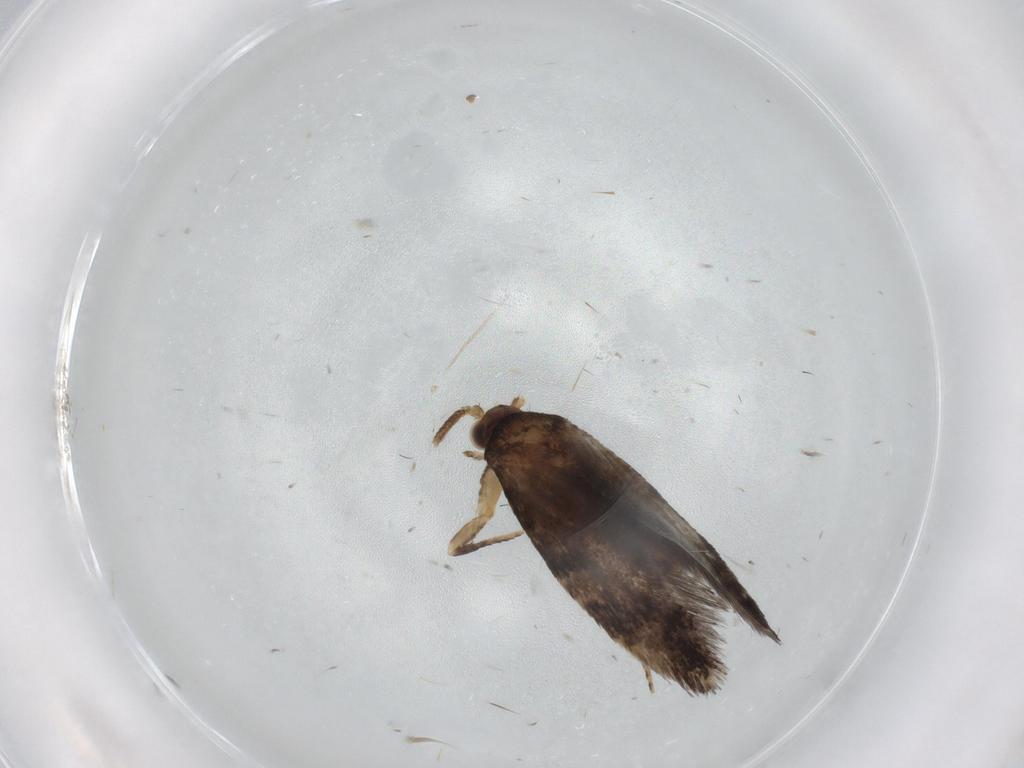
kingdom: Animalia
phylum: Arthropoda
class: Insecta
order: Lepidoptera
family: Tineidae
